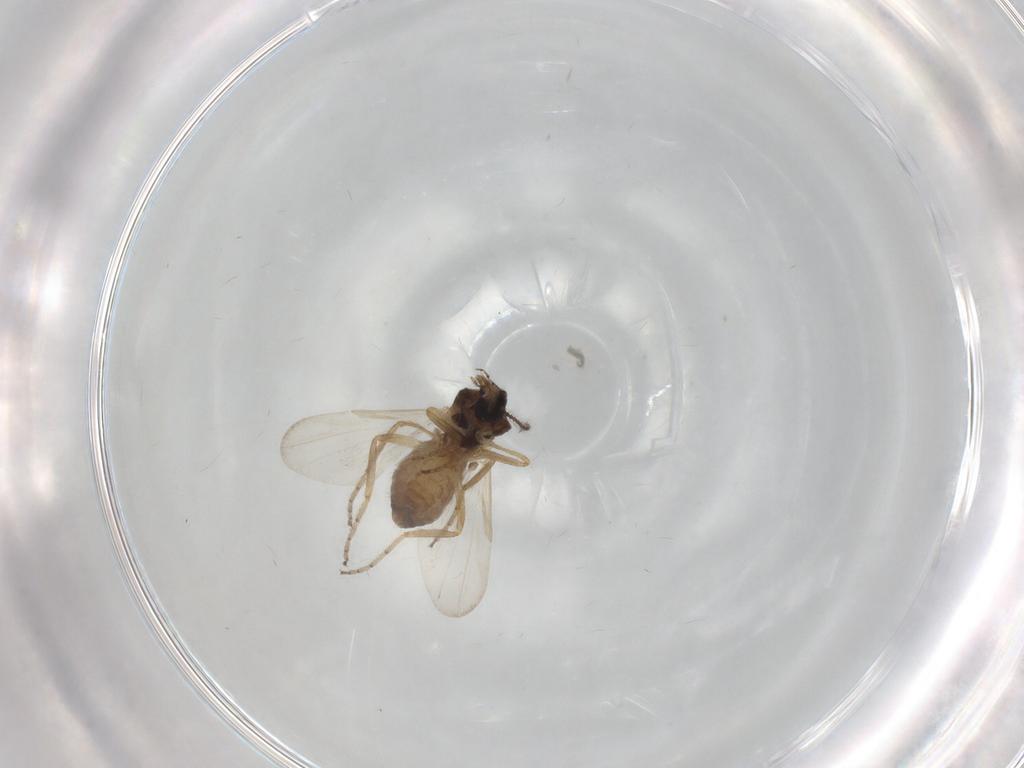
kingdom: Animalia
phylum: Arthropoda
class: Insecta
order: Diptera
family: Ceratopogonidae
